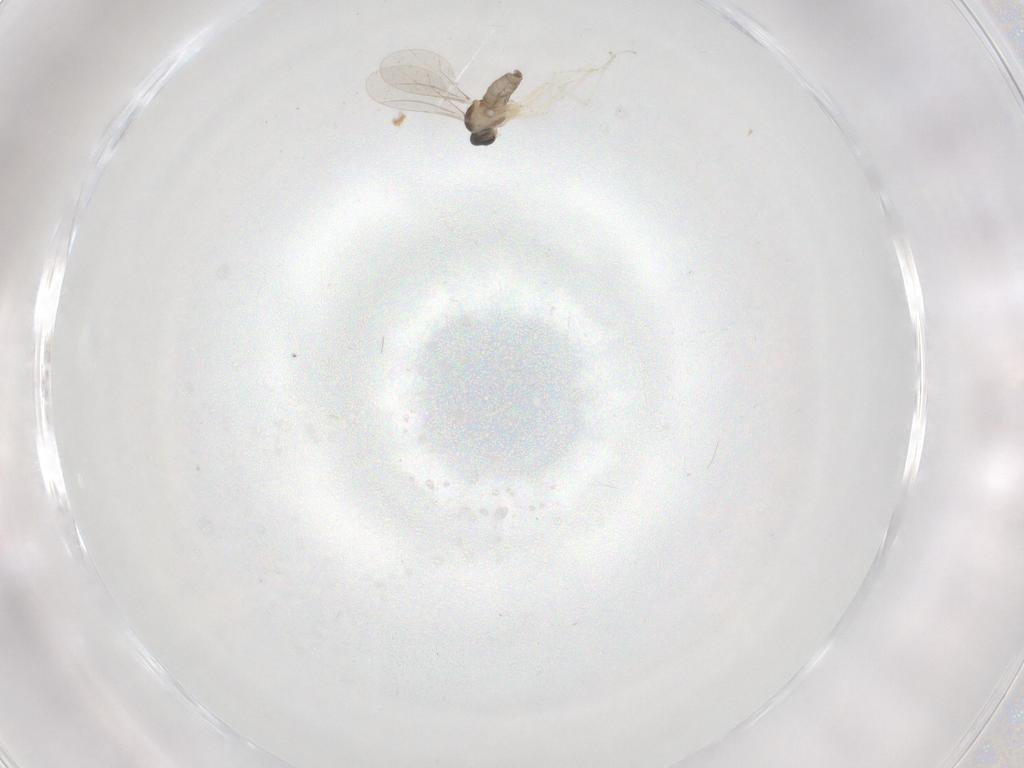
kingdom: Animalia
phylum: Arthropoda
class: Insecta
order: Diptera
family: Cecidomyiidae
